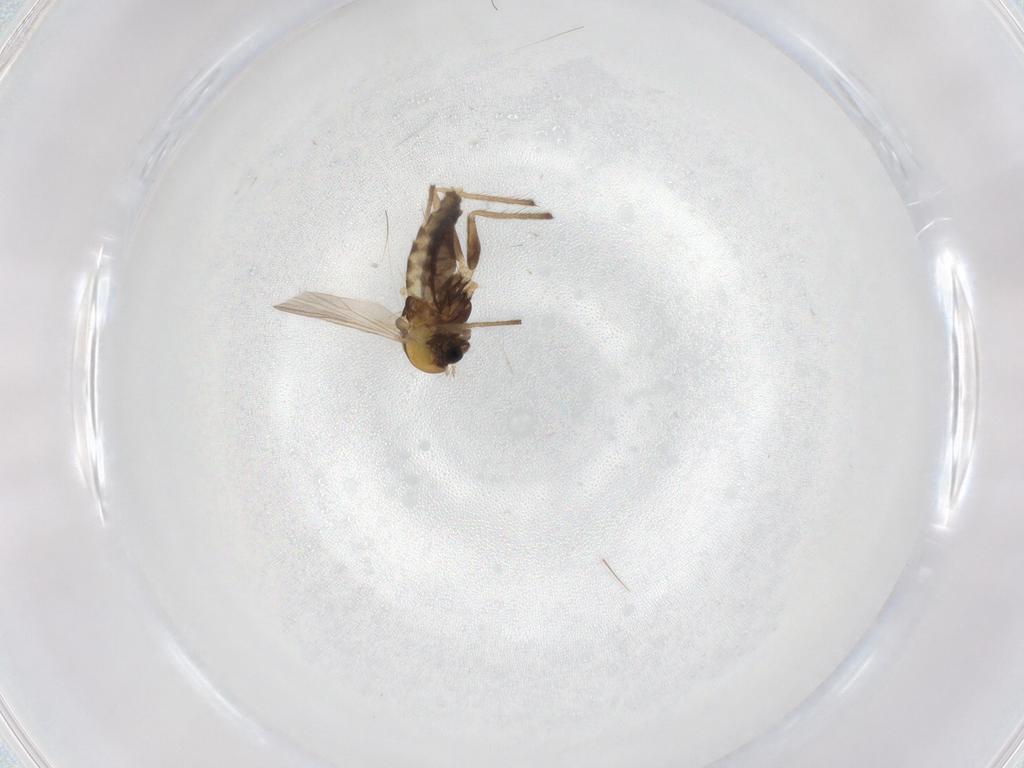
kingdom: Animalia
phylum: Arthropoda
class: Insecta
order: Diptera
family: Chironomidae
